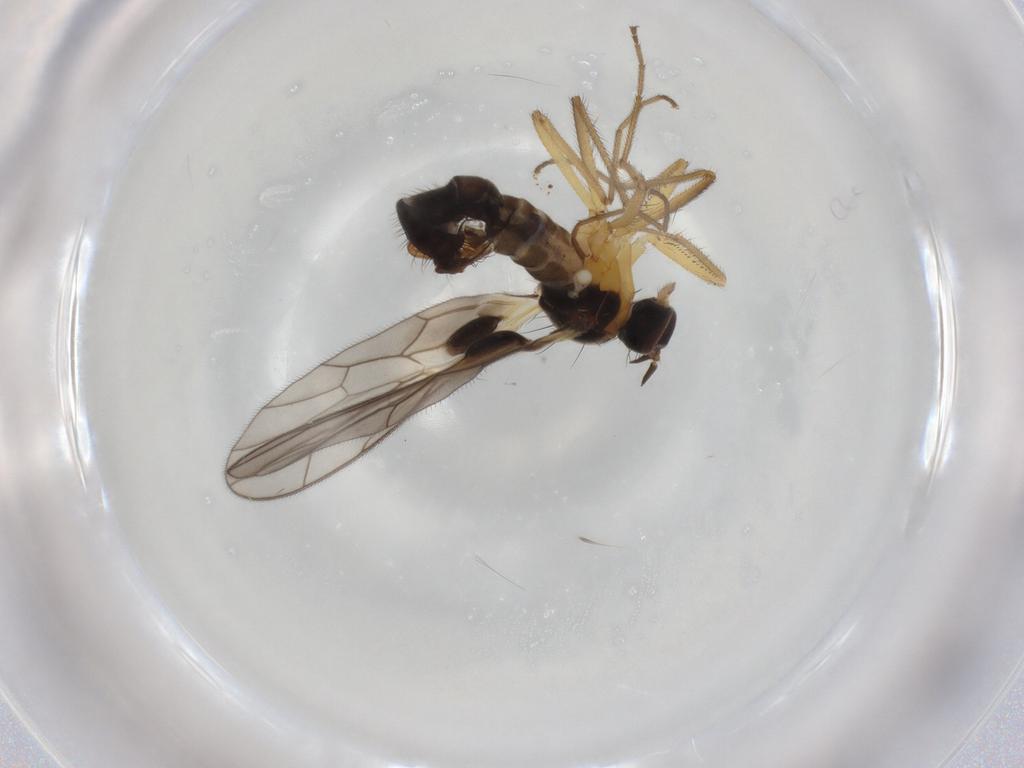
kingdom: Animalia
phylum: Arthropoda
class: Insecta
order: Diptera
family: Empididae
